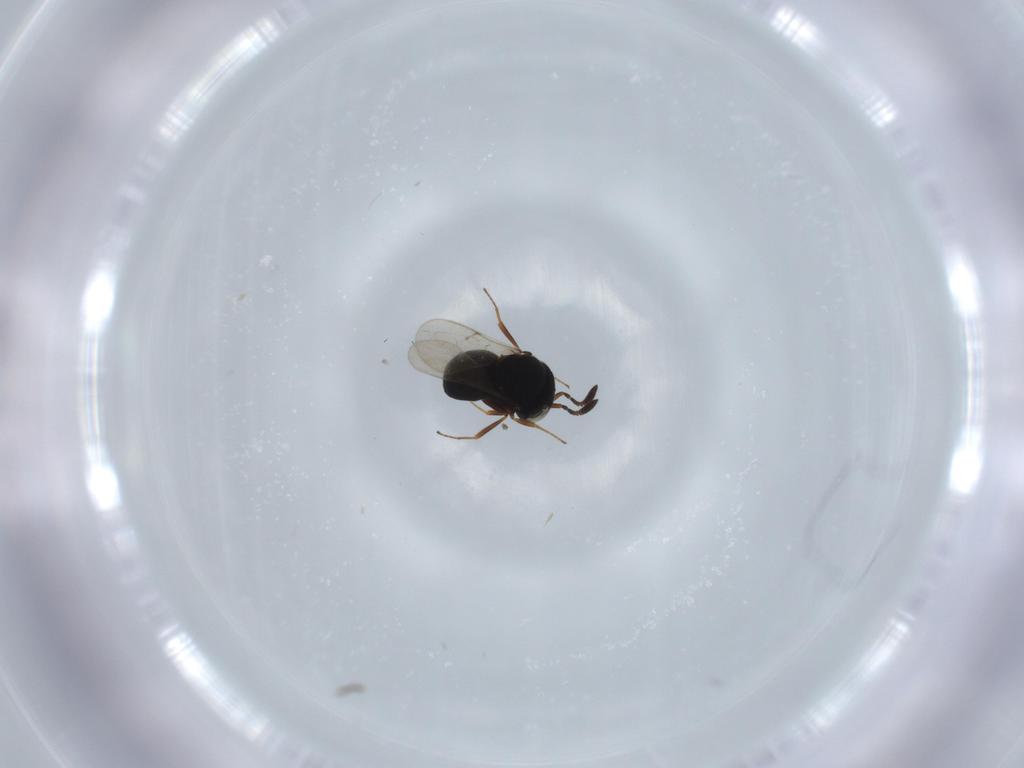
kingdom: Animalia
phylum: Arthropoda
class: Insecta
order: Hymenoptera
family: Scelionidae
